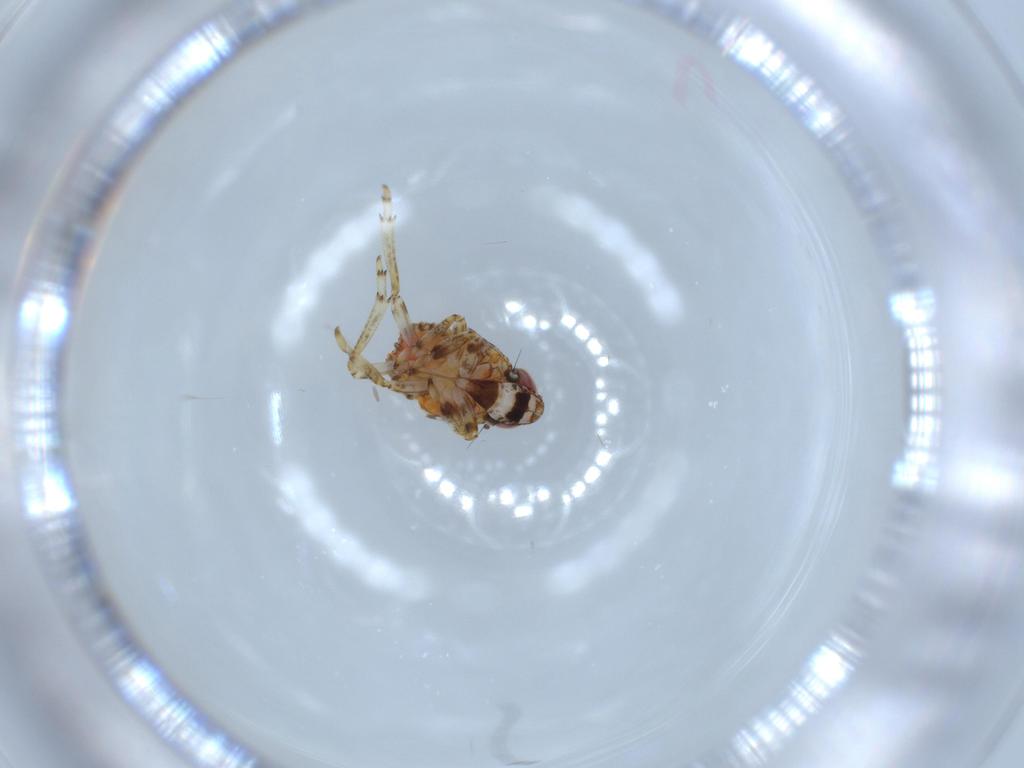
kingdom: Animalia
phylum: Arthropoda
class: Insecta
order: Hemiptera
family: Issidae
